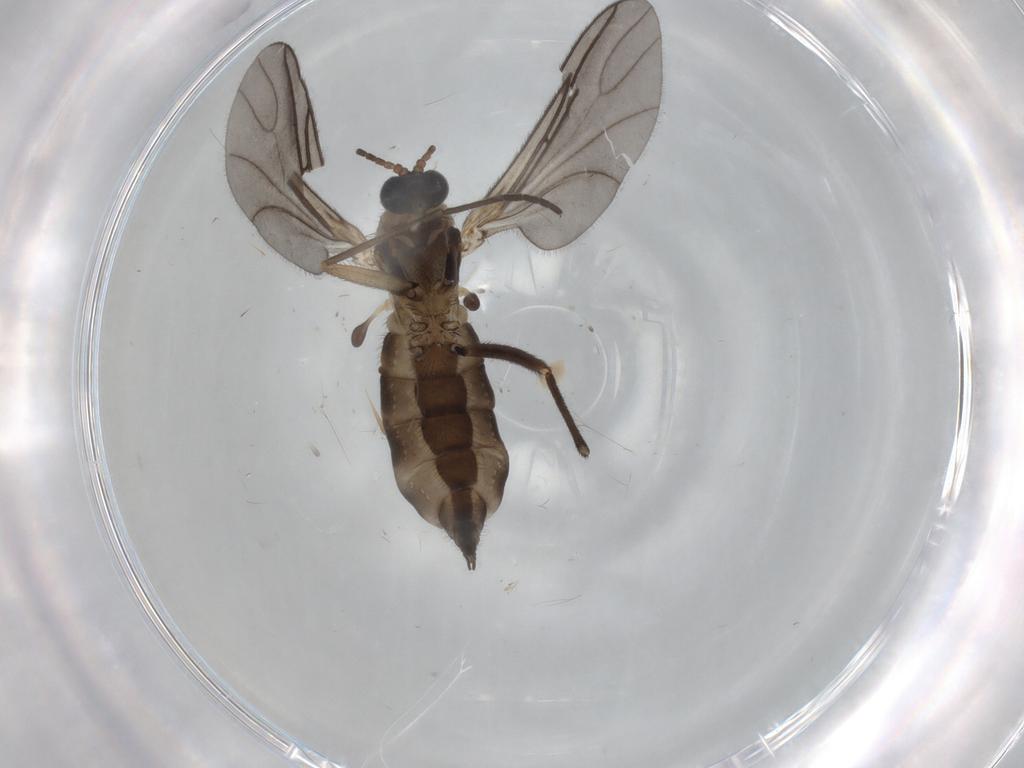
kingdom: Animalia
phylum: Arthropoda
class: Insecta
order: Diptera
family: Sciaridae
